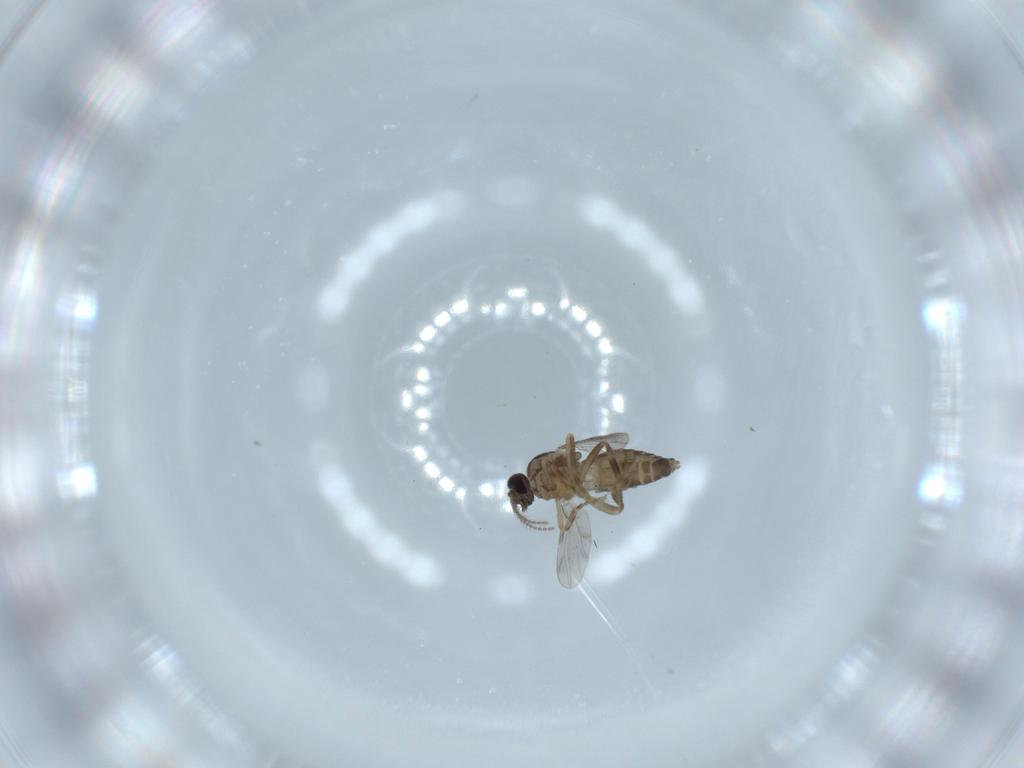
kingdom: Animalia
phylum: Arthropoda
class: Insecta
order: Diptera
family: Ceratopogonidae
